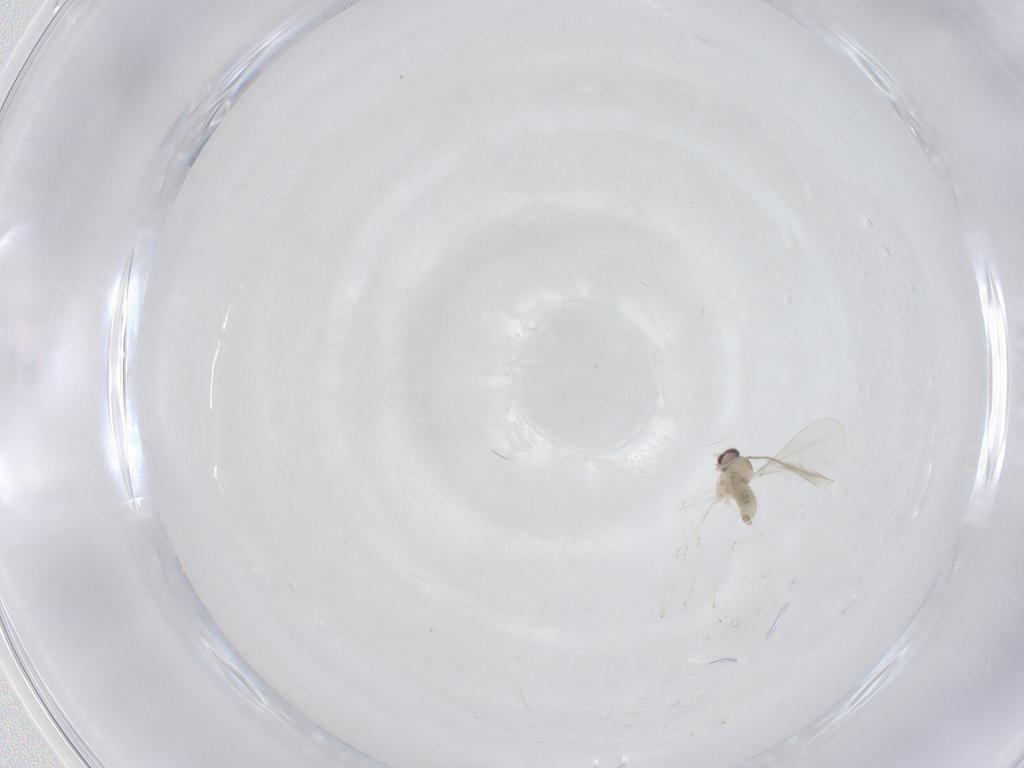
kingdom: Animalia
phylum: Arthropoda
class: Insecta
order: Diptera
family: Cecidomyiidae
